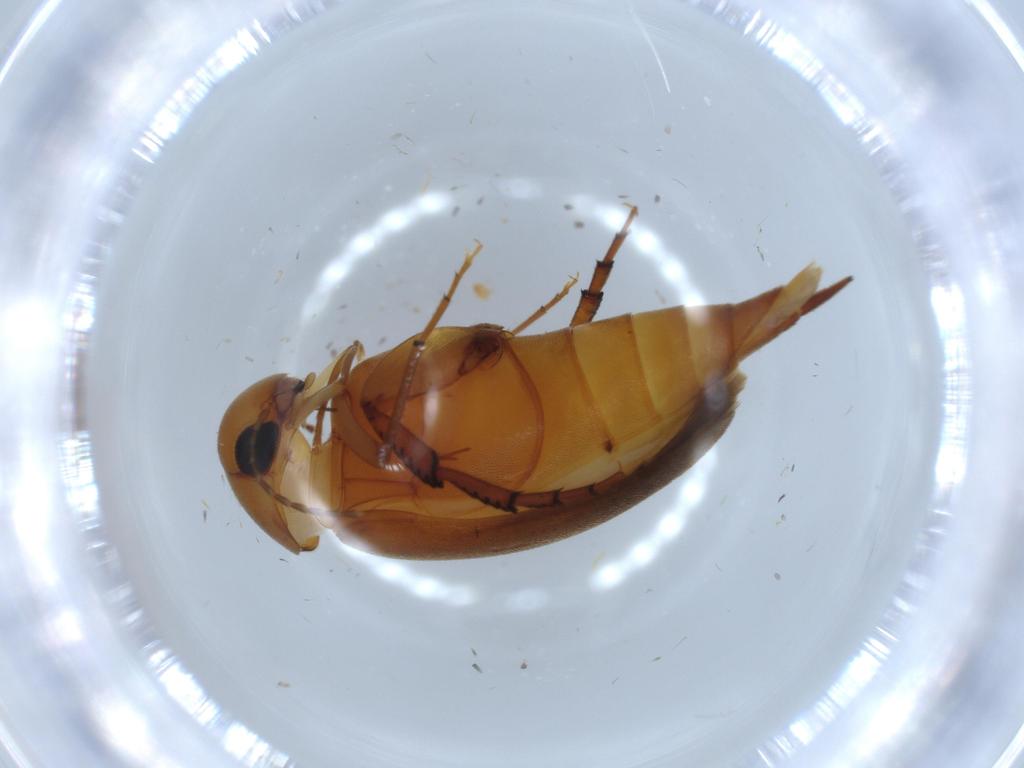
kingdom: Animalia
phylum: Arthropoda
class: Insecta
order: Coleoptera
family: Mordellidae
